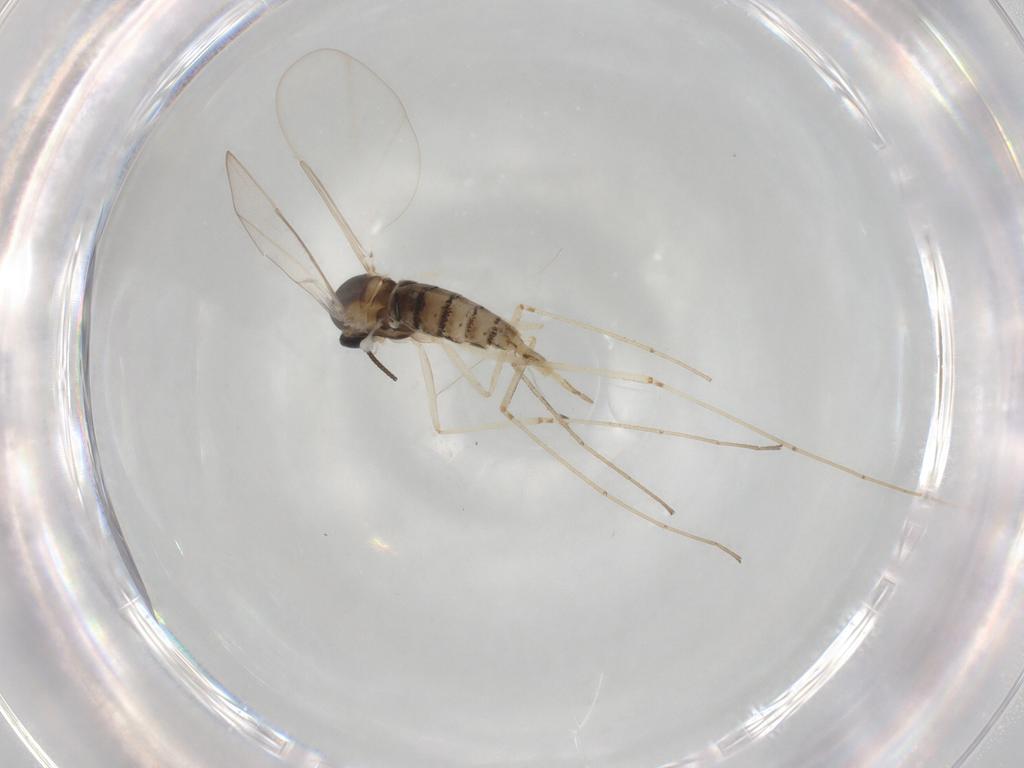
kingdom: Animalia
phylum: Arthropoda
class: Insecta
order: Diptera
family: Cecidomyiidae
